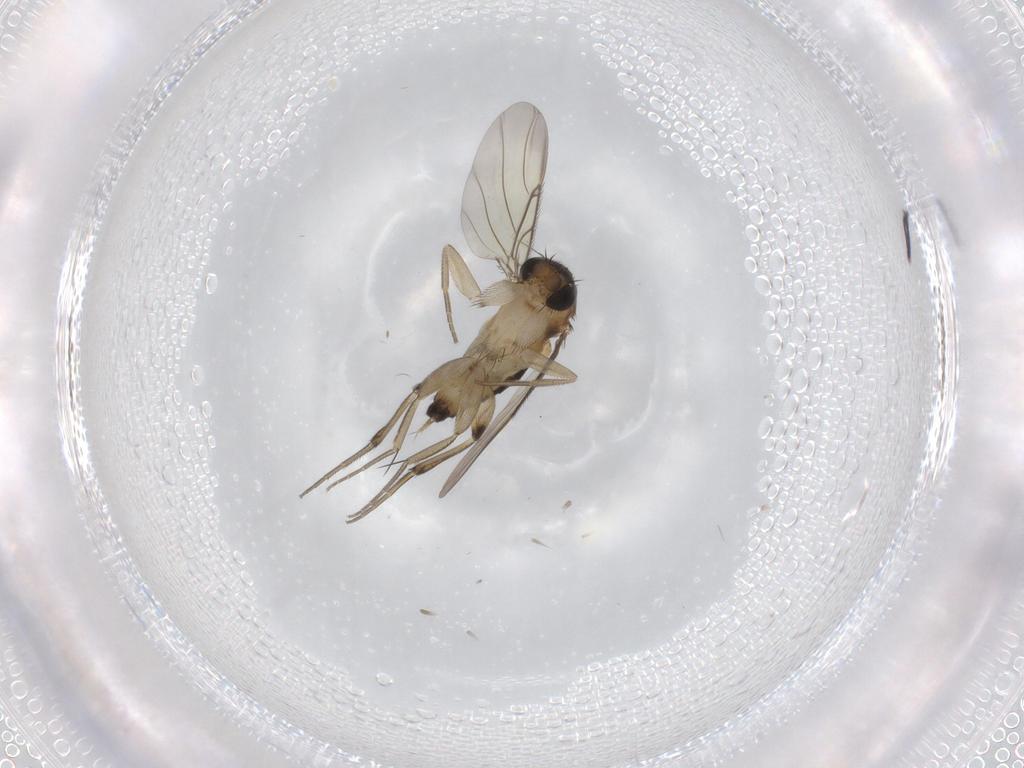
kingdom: Animalia
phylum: Arthropoda
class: Insecta
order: Diptera
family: Phoridae
